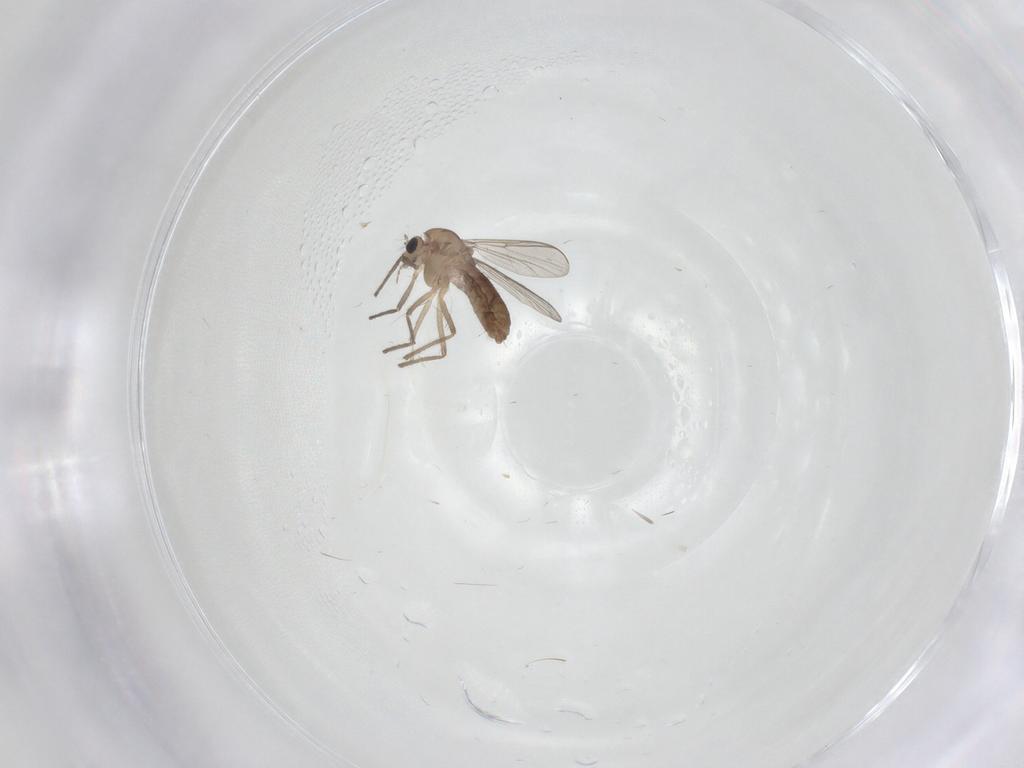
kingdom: Animalia
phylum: Arthropoda
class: Insecta
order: Diptera
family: Chironomidae
